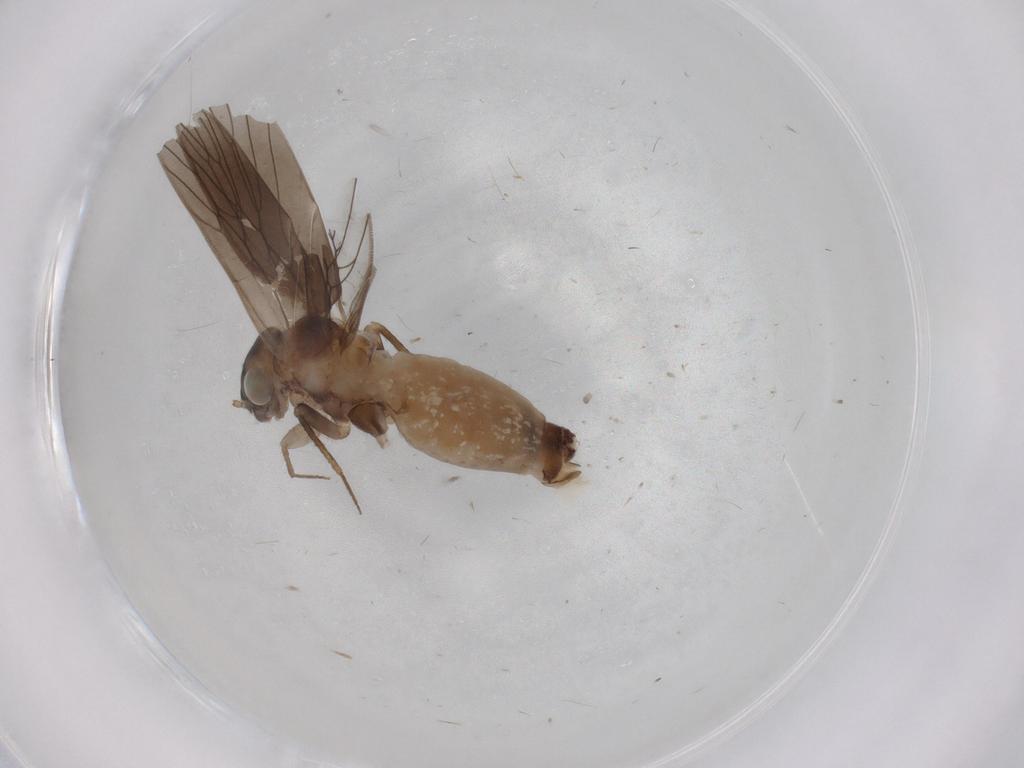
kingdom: Animalia
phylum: Arthropoda
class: Insecta
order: Psocodea
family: Lepidopsocidae
